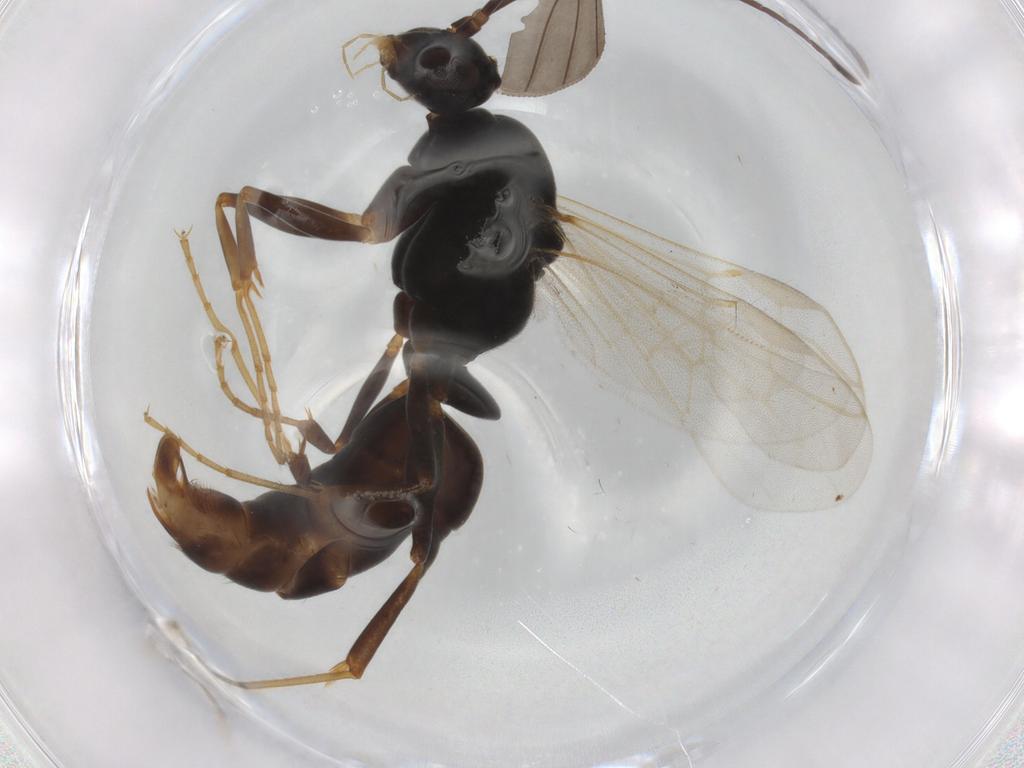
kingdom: Animalia
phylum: Arthropoda
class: Insecta
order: Hymenoptera
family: Formicidae
